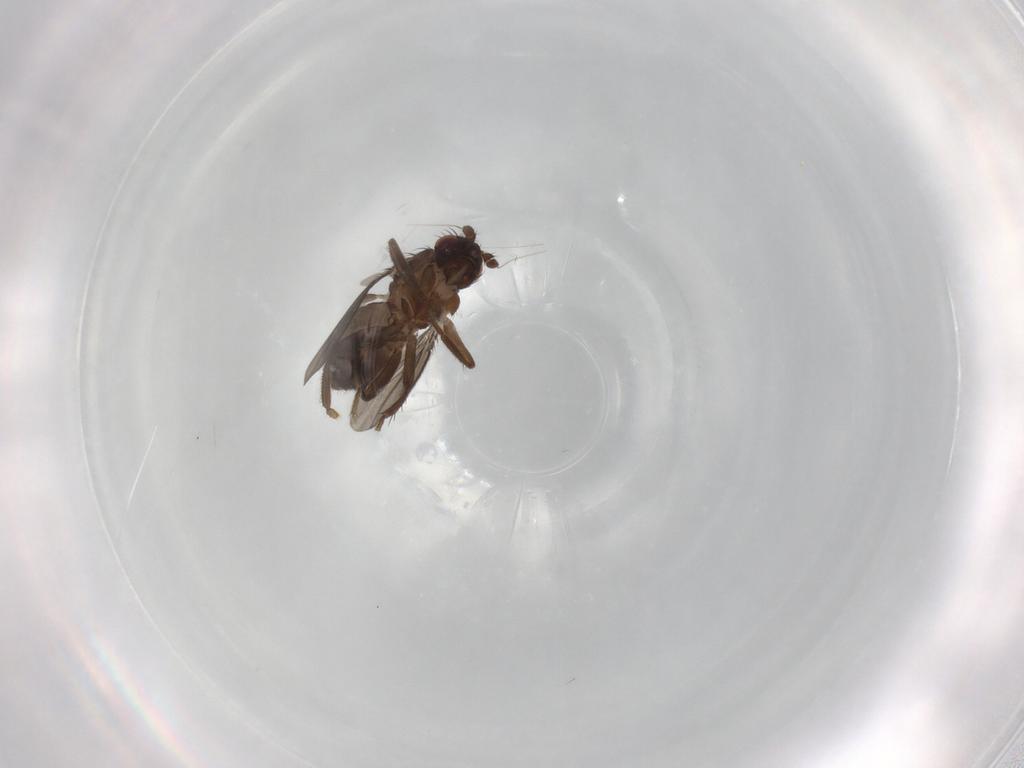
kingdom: Animalia
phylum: Arthropoda
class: Insecta
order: Diptera
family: Sphaeroceridae
